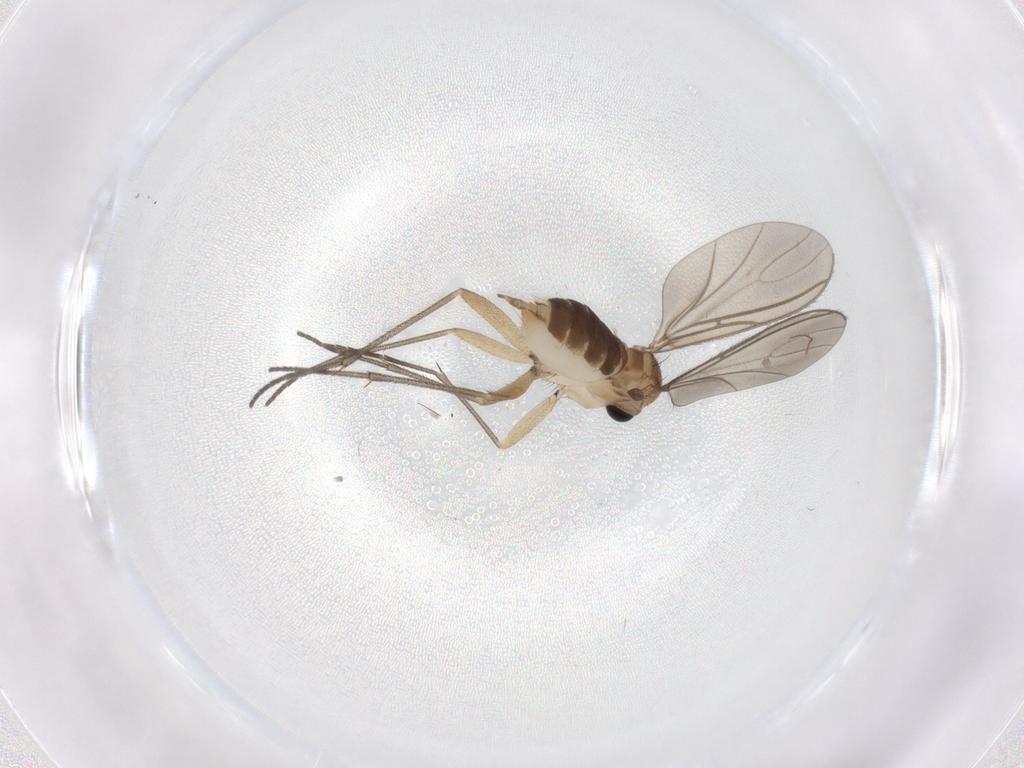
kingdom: Animalia
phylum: Arthropoda
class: Insecta
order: Diptera
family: Sciaridae
